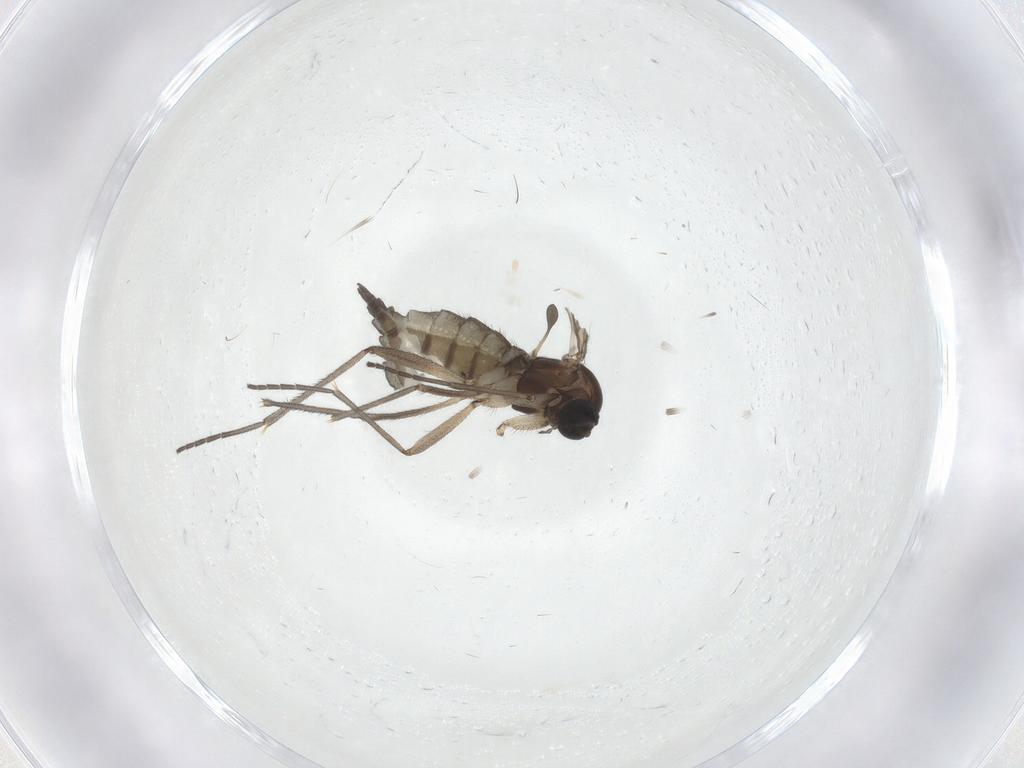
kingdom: Animalia
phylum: Arthropoda
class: Insecta
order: Diptera
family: Sciaridae
